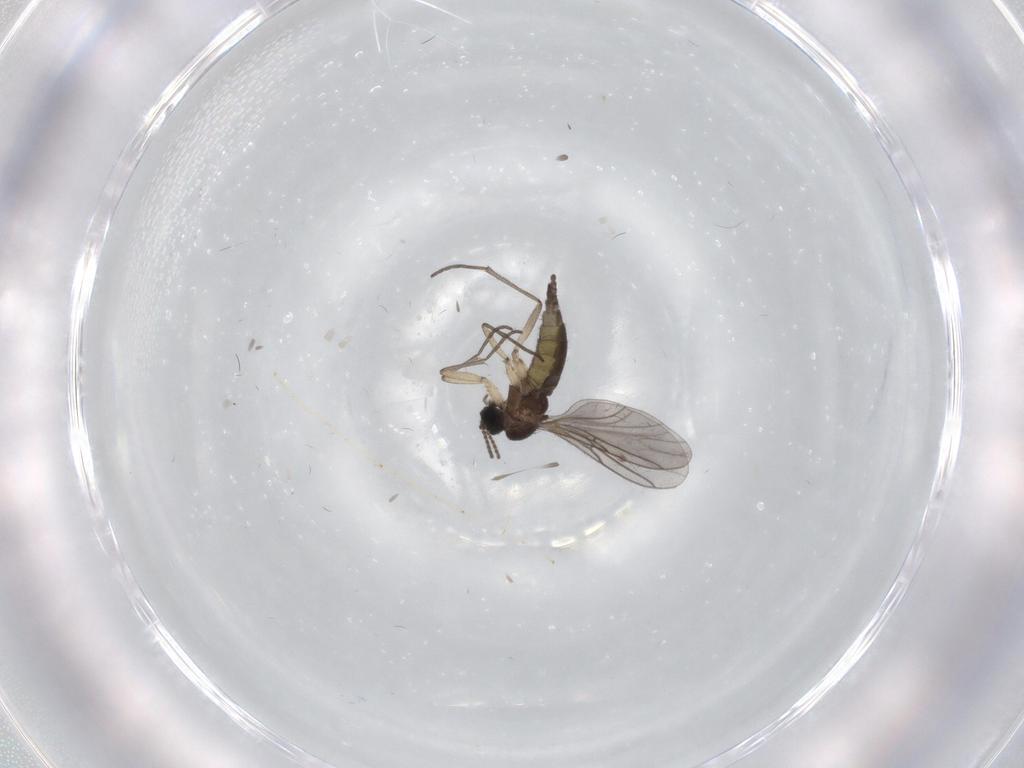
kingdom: Animalia
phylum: Arthropoda
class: Insecta
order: Diptera
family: Sciaridae
